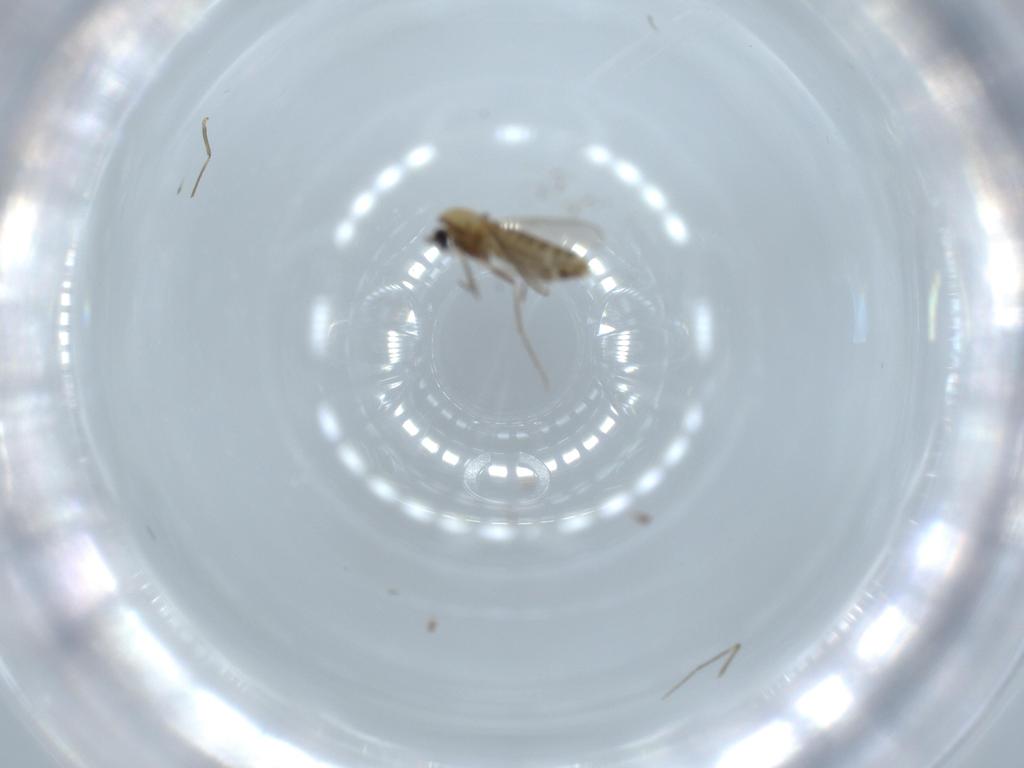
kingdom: Animalia
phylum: Arthropoda
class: Insecta
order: Diptera
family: Chironomidae
